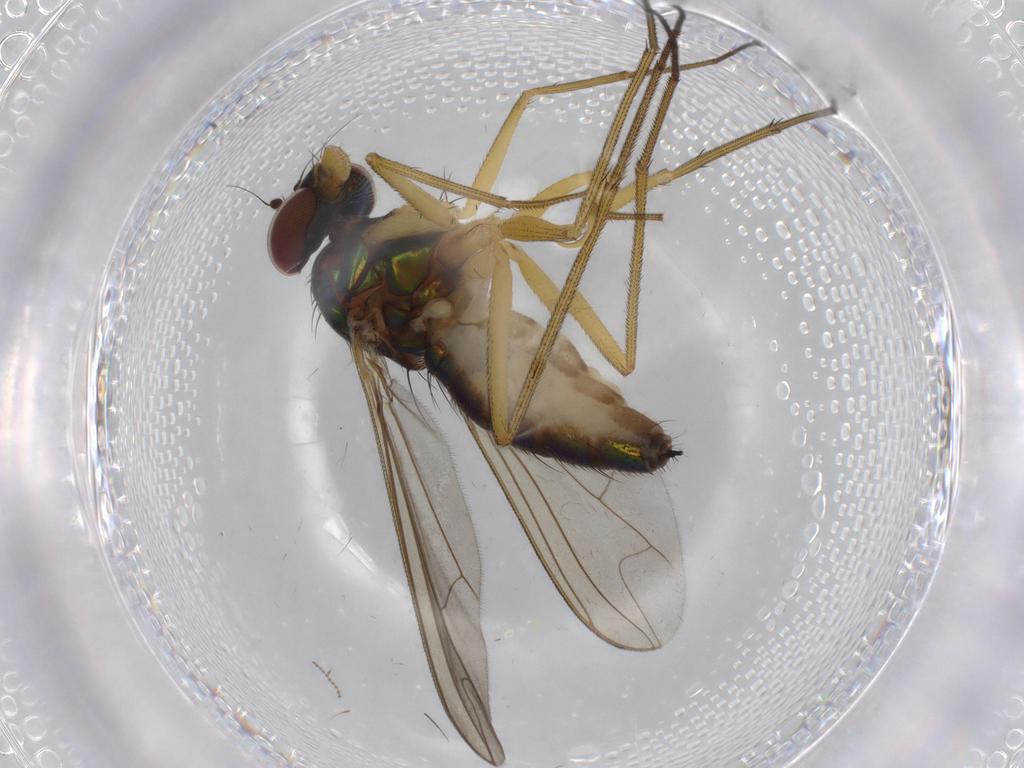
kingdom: Animalia
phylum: Arthropoda
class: Insecta
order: Diptera
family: Dolichopodidae
